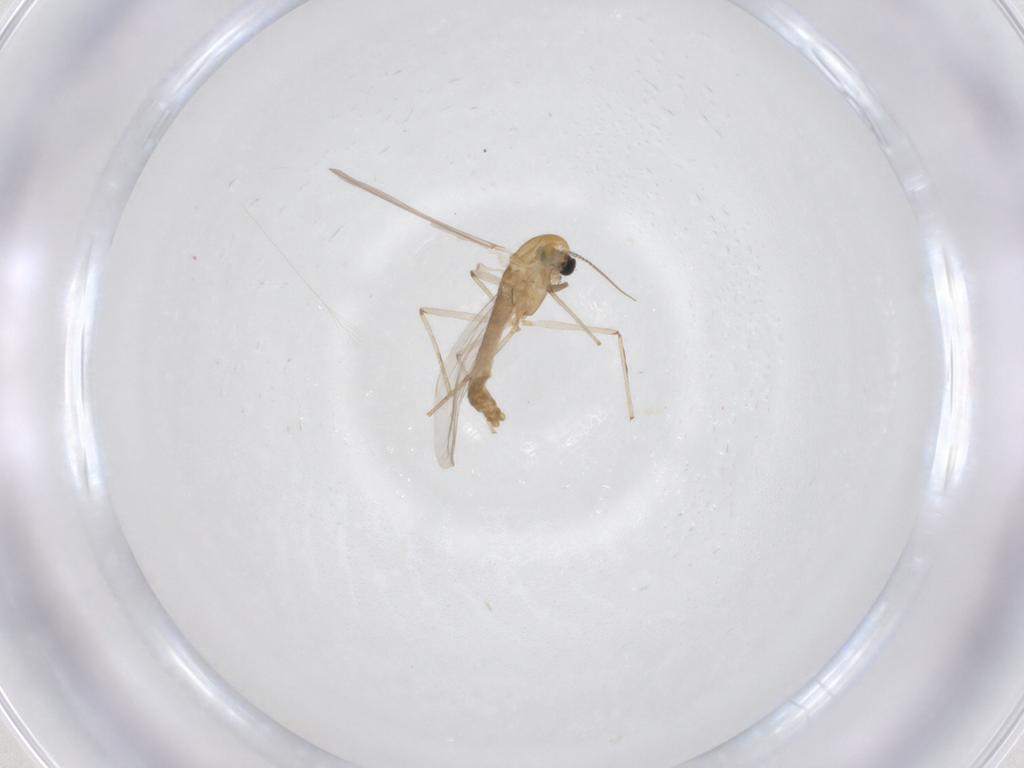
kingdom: Animalia
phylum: Arthropoda
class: Insecta
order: Diptera
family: Chironomidae
